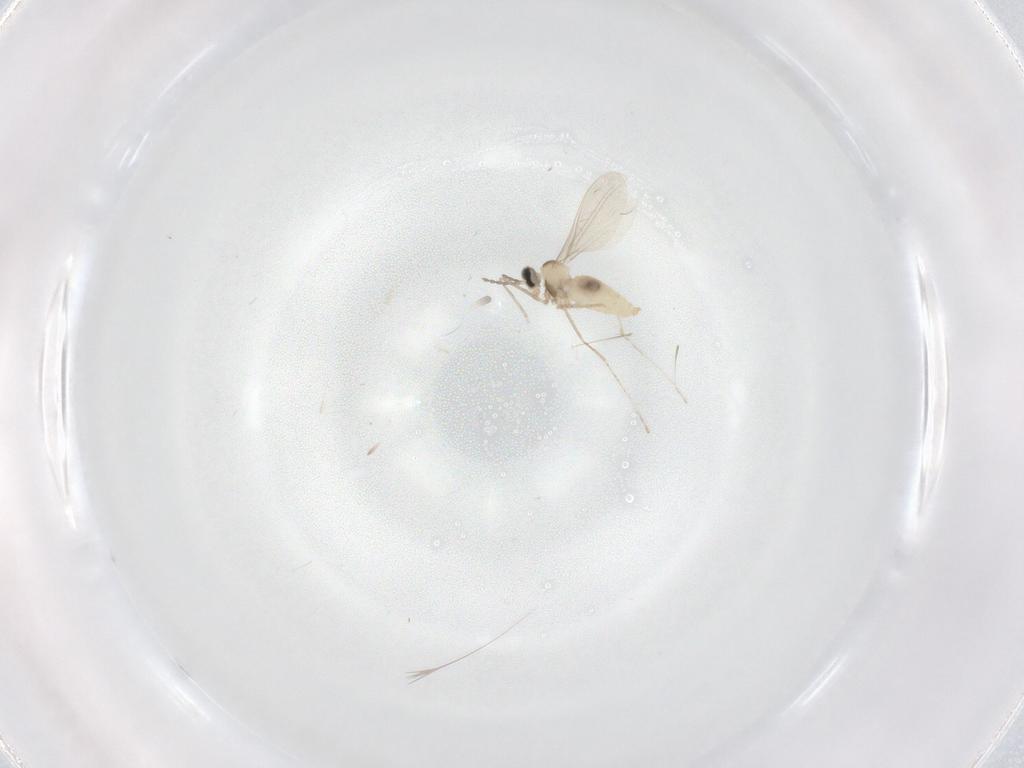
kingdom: Animalia
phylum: Arthropoda
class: Insecta
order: Diptera
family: Cecidomyiidae
